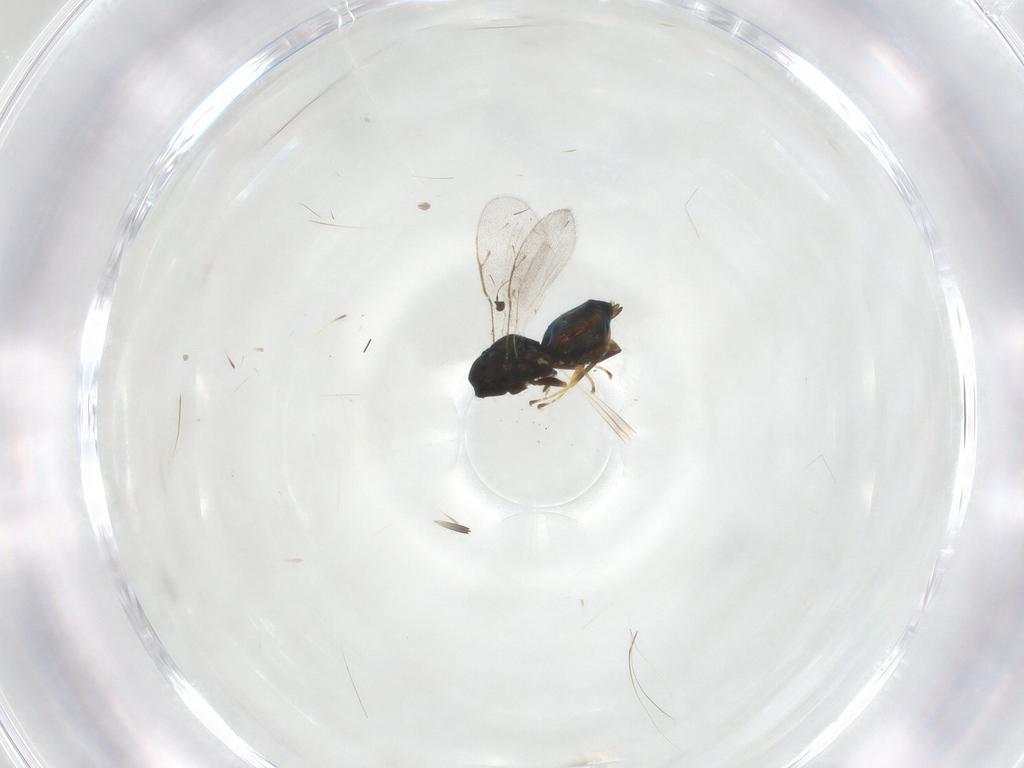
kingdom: Animalia
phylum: Arthropoda
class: Insecta
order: Hymenoptera
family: Pteromalidae
